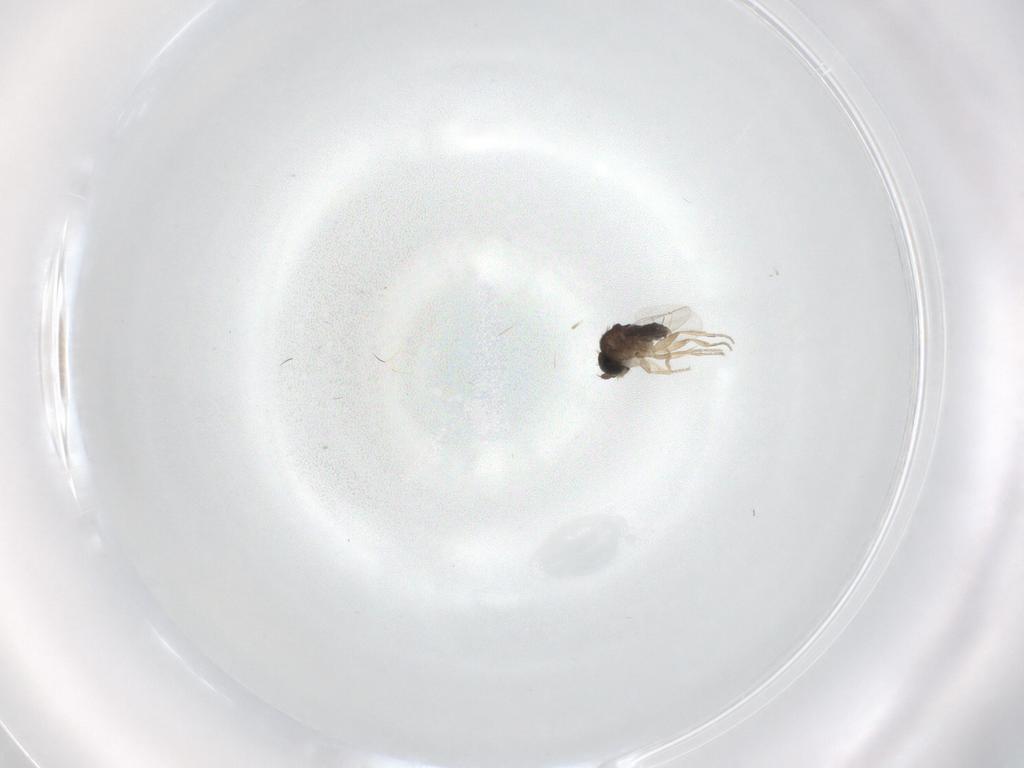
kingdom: Animalia
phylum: Arthropoda
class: Insecta
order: Diptera
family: Phoridae
